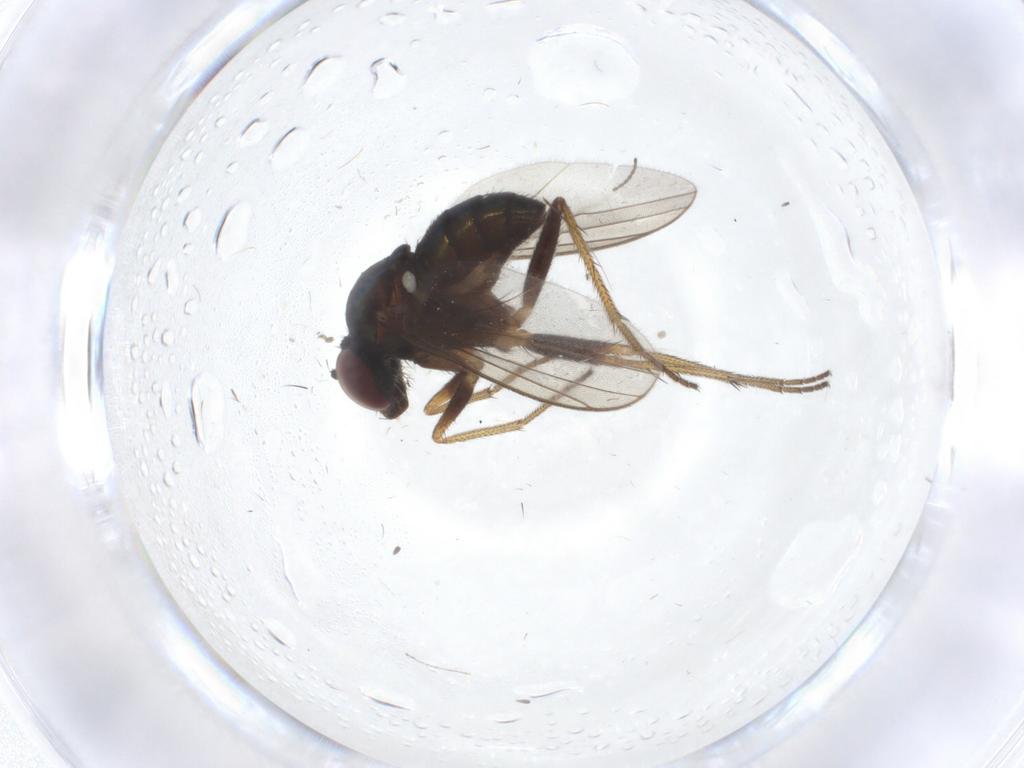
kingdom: Animalia
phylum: Arthropoda
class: Insecta
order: Diptera
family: Cecidomyiidae
